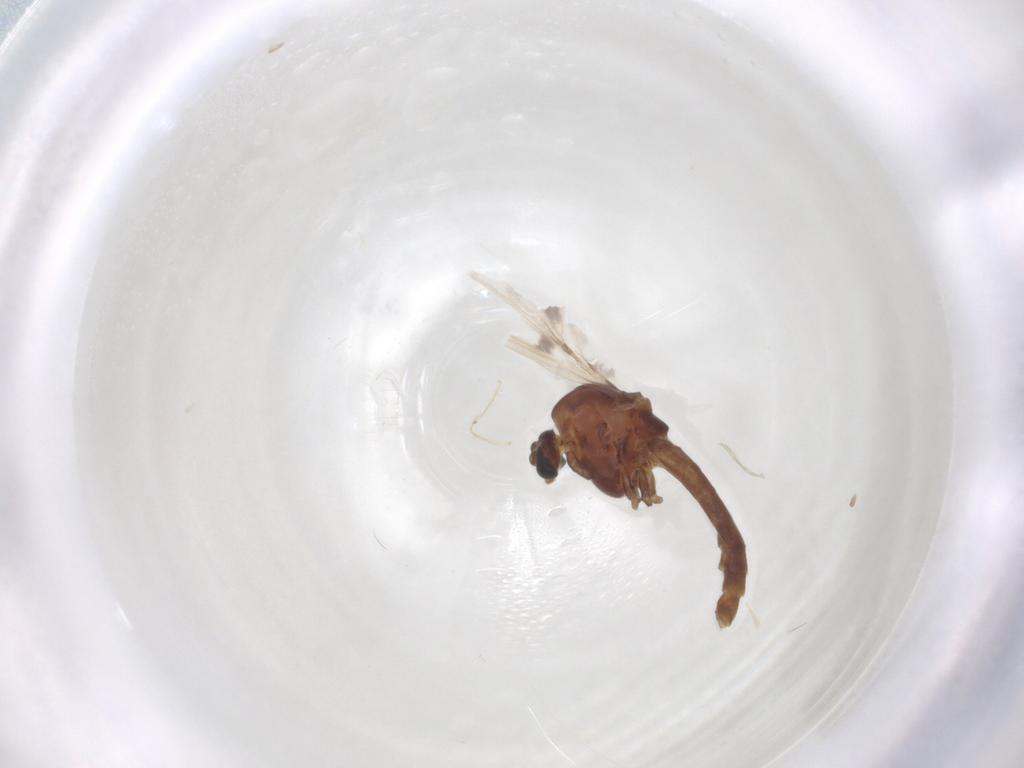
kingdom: Animalia
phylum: Arthropoda
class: Insecta
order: Diptera
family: Chironomidae
